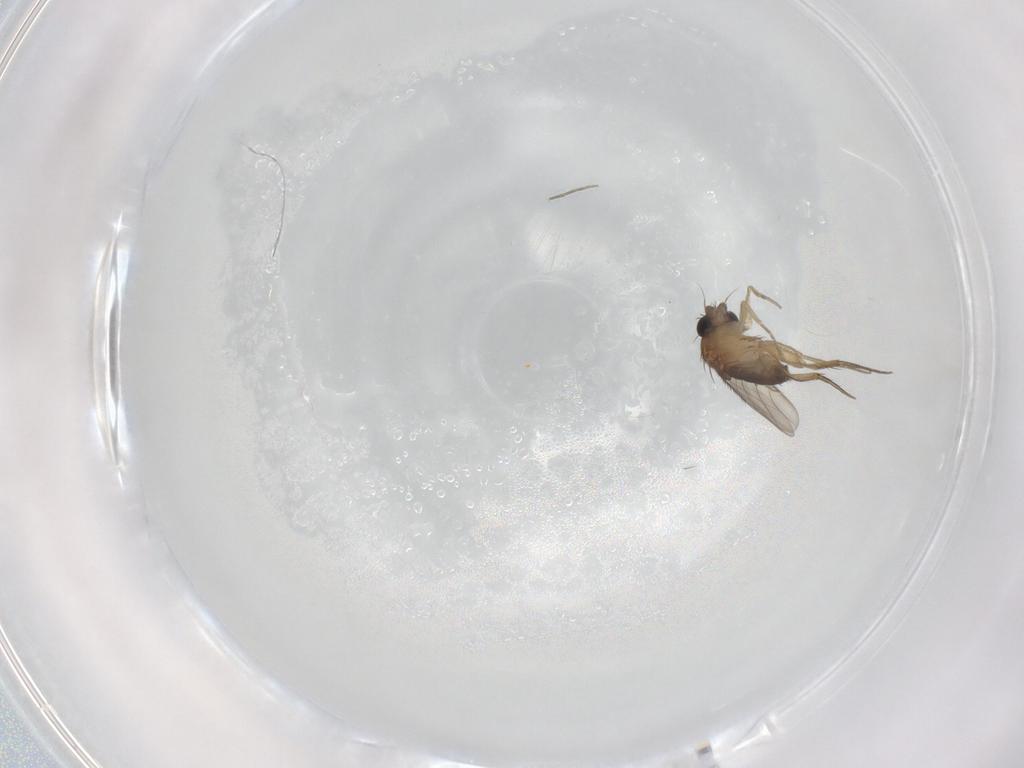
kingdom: Animalia
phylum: Arthropoda
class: Insecta
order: Diptera
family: Phoridae
